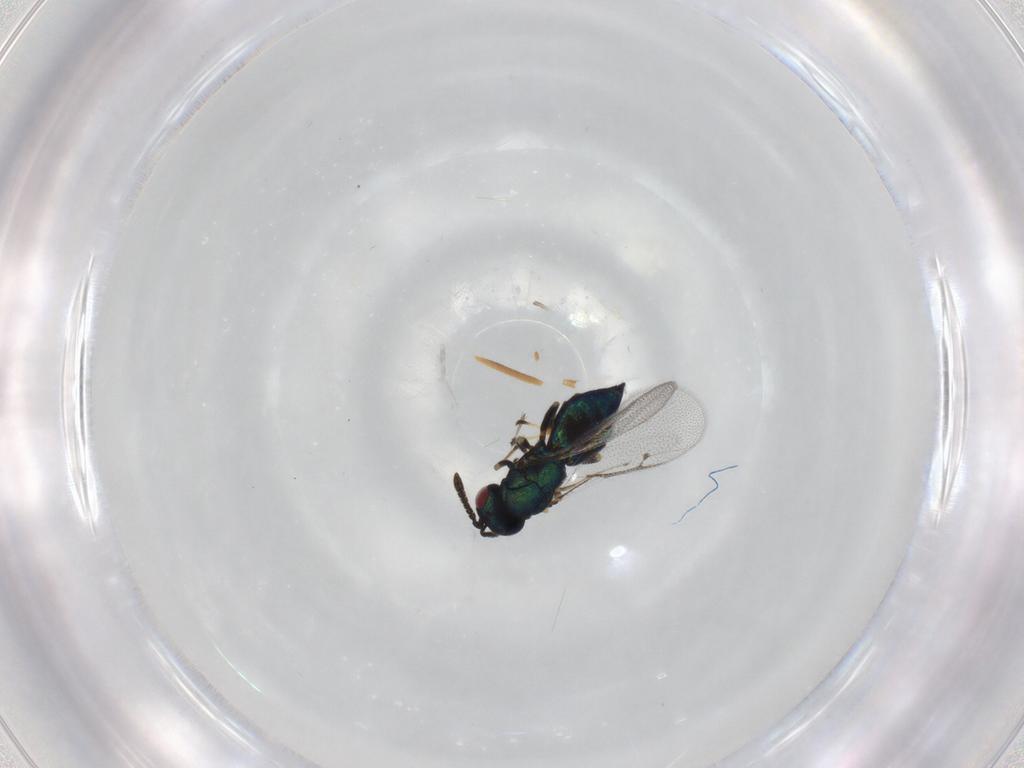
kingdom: Animalia
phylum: Arthropoda
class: Insecta
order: Hymenoptera
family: Pteromalidae
